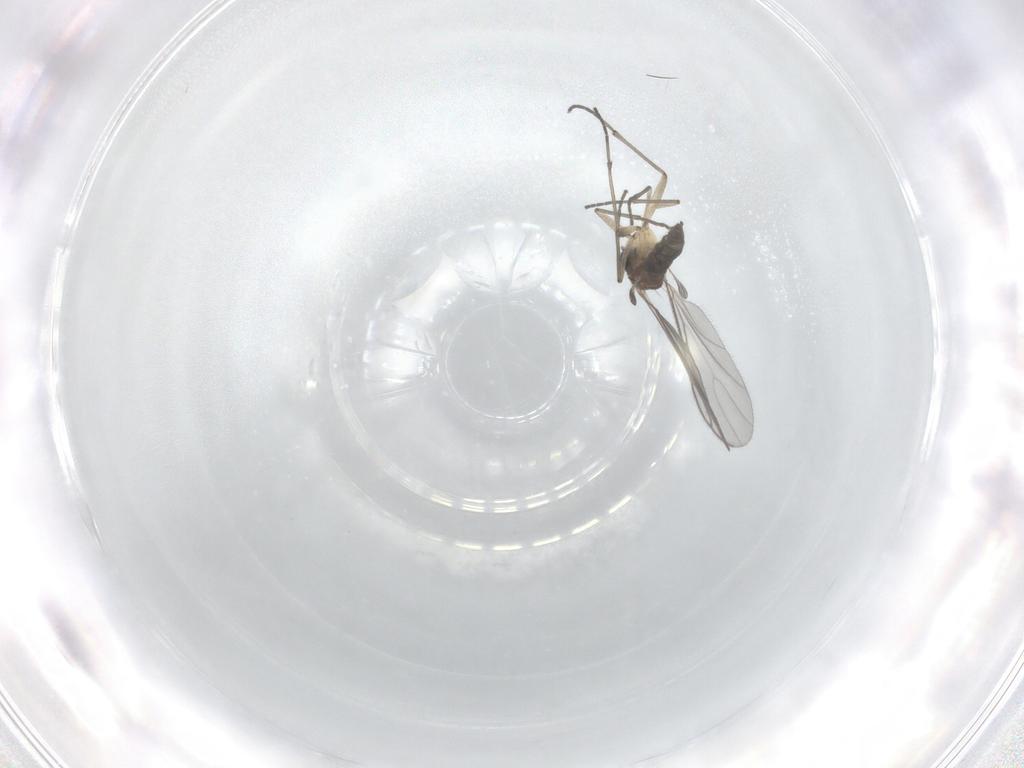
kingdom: Animalia
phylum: Arthropoda
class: Insecta
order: Diptera
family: Sciaridae
